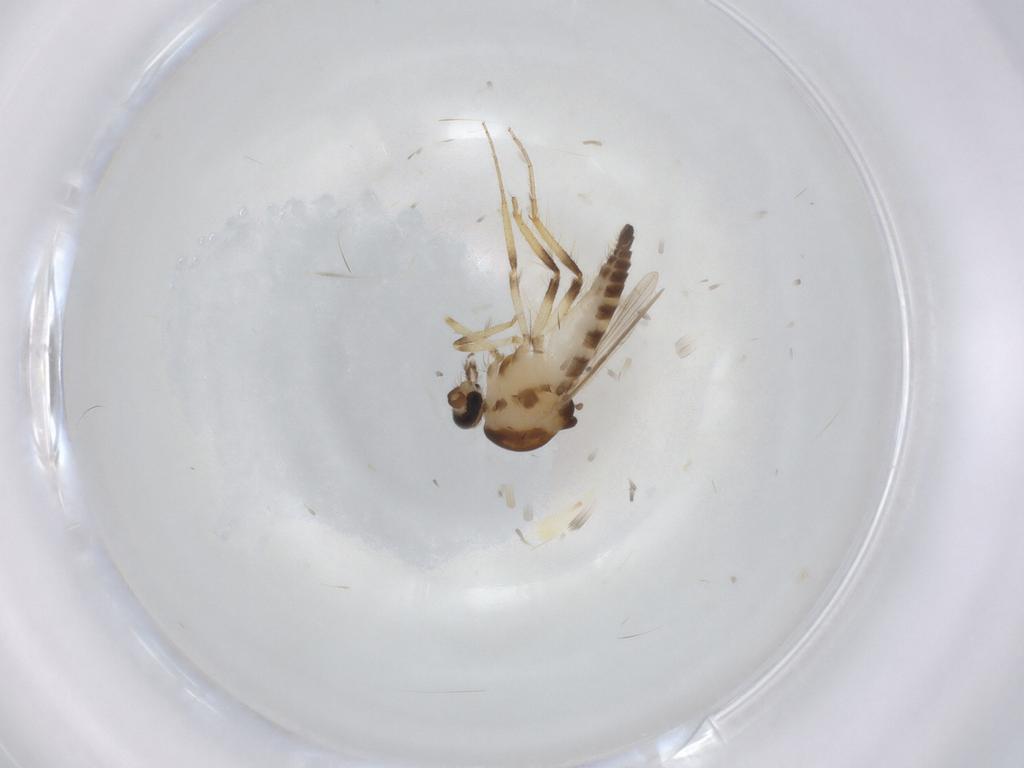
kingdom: Animalia
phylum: Arthropoda
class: Insecta
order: Diptera
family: Ceratopogonidae
